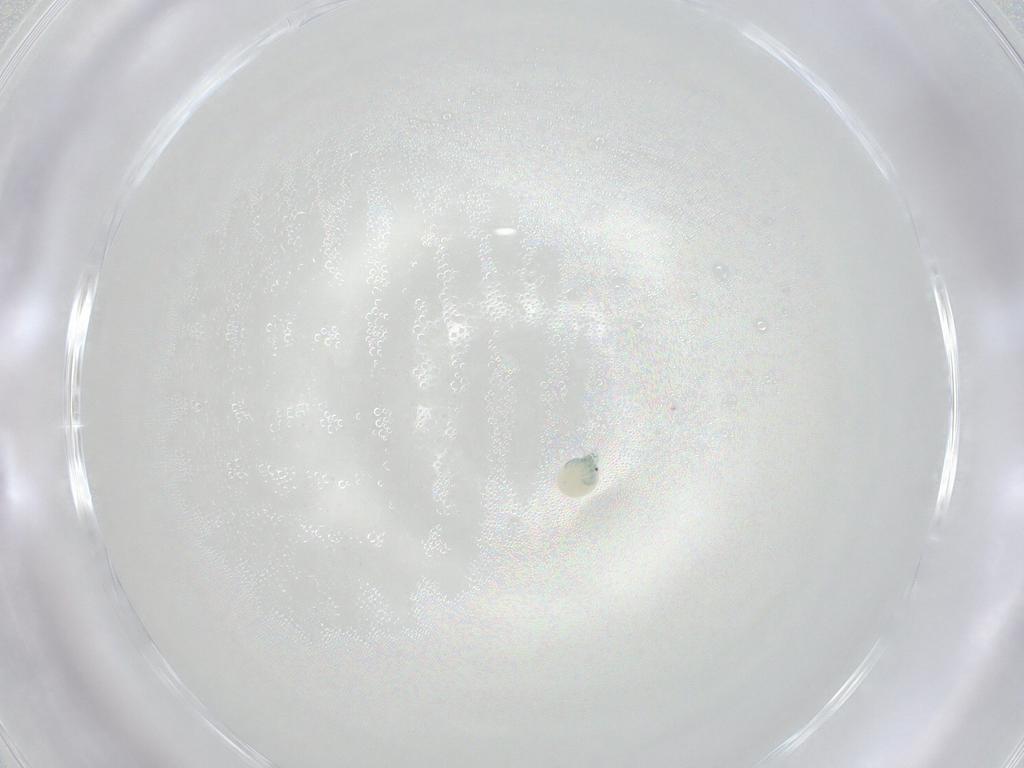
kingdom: Animalia
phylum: Arthropoda
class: Arachnida
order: Trombidiformes
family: Arrenuridae
